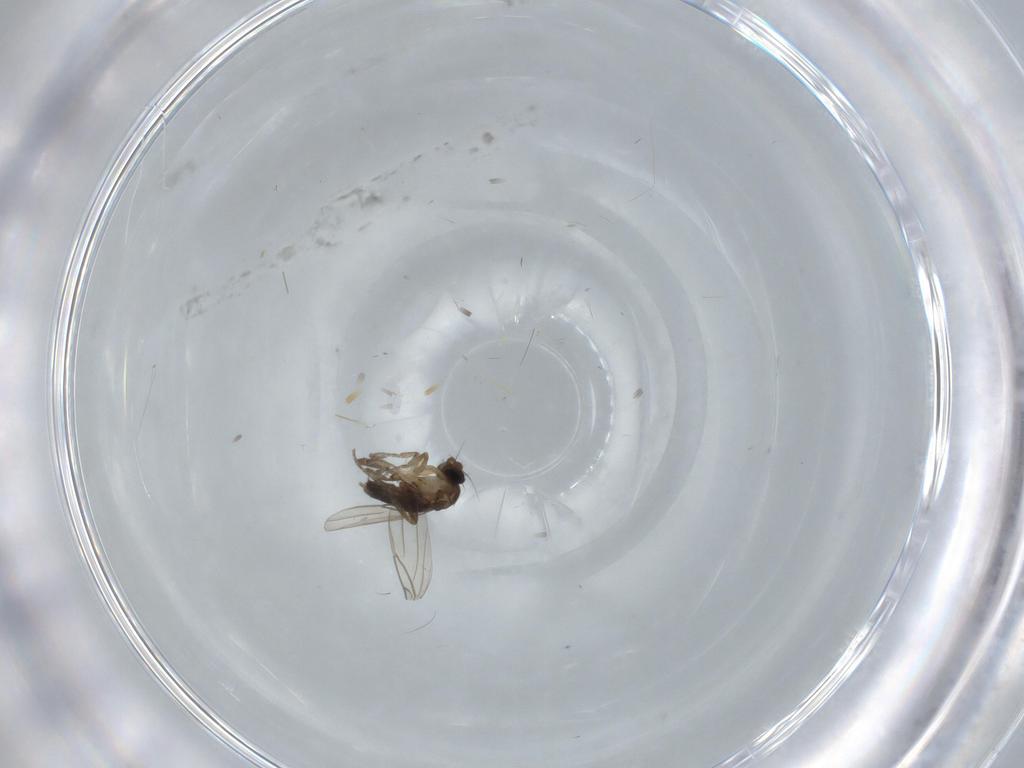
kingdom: Animalia
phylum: Arthropoda
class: Insecta
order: Diptera
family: Phoridae
